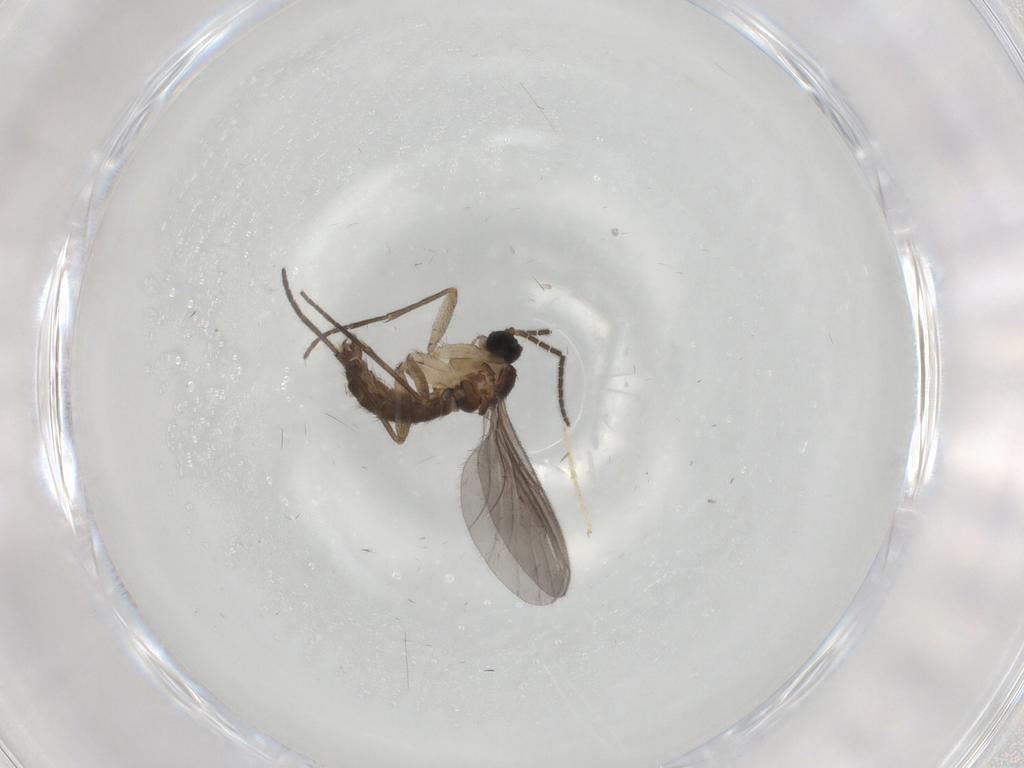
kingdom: Animalia
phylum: Arthropoda
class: Insecta
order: Diptera
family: Sciaridae
